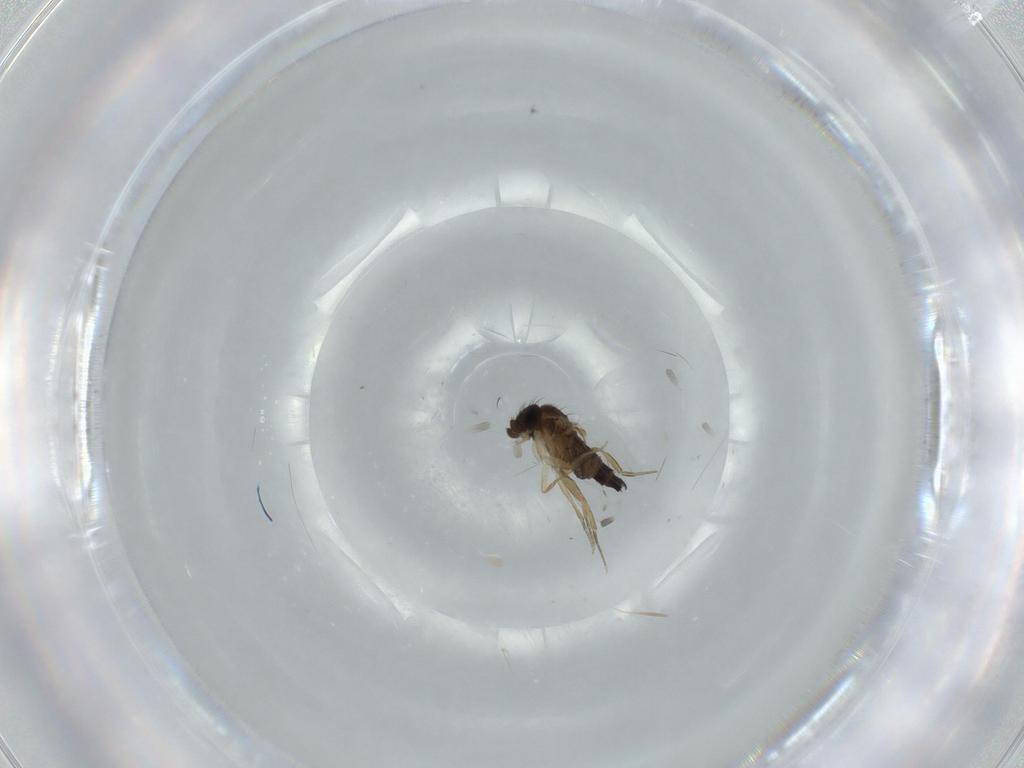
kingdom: Animalia
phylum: Arthropoda
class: Insecta
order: Diptera
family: Phoridae
